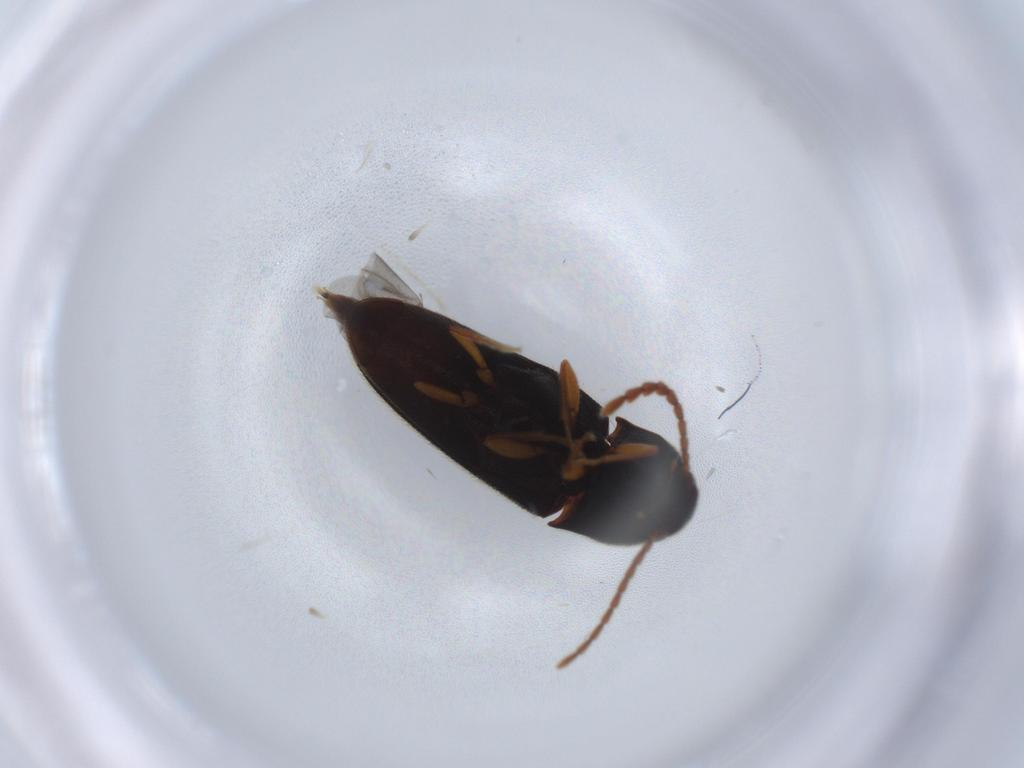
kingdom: Animalia
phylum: Arthropoda
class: Insecta
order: Coleoptera
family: Elateridae
